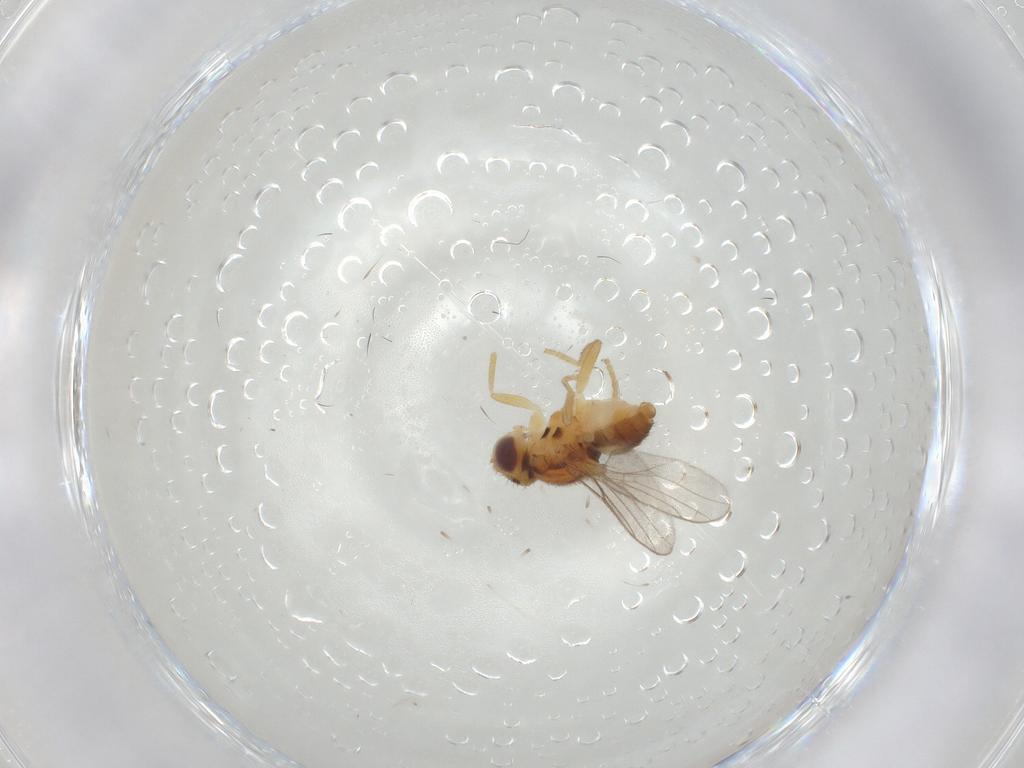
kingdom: Animalia
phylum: Arthropoda
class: Insecta
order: Diptera
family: Chloropidae
